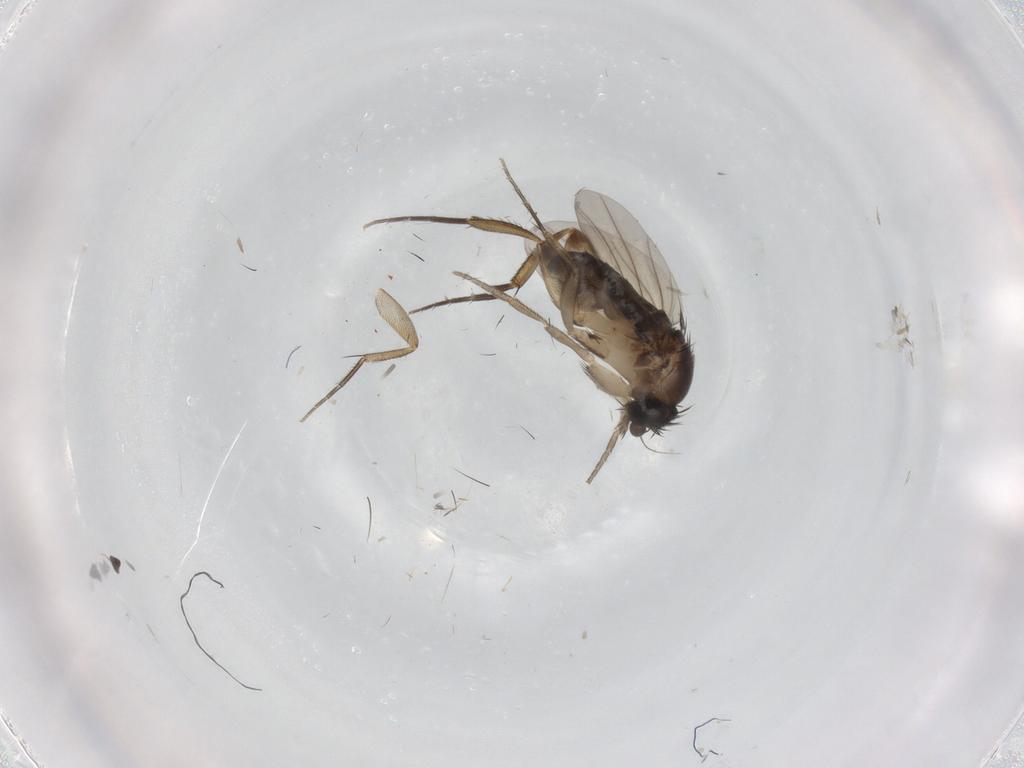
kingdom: Animalia
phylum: Arthropoda
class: Insecta
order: Diptera
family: Phoridae
